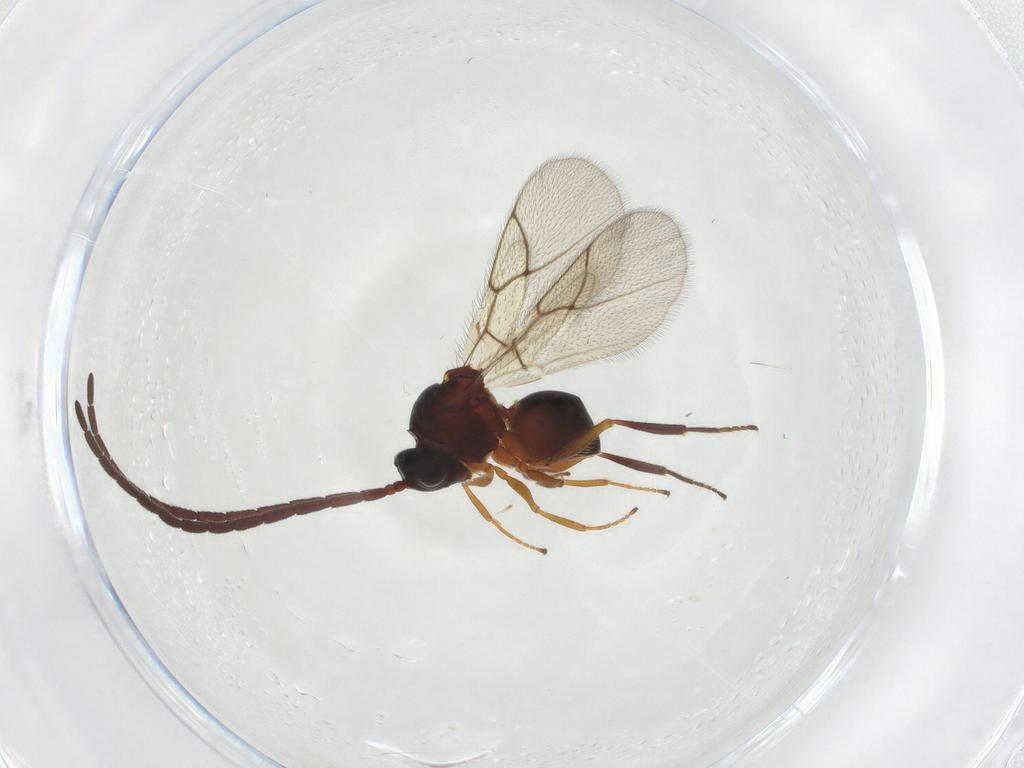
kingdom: Animalia
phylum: Arthropoda
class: Insecta
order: Hymenoptera
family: Figitidae
